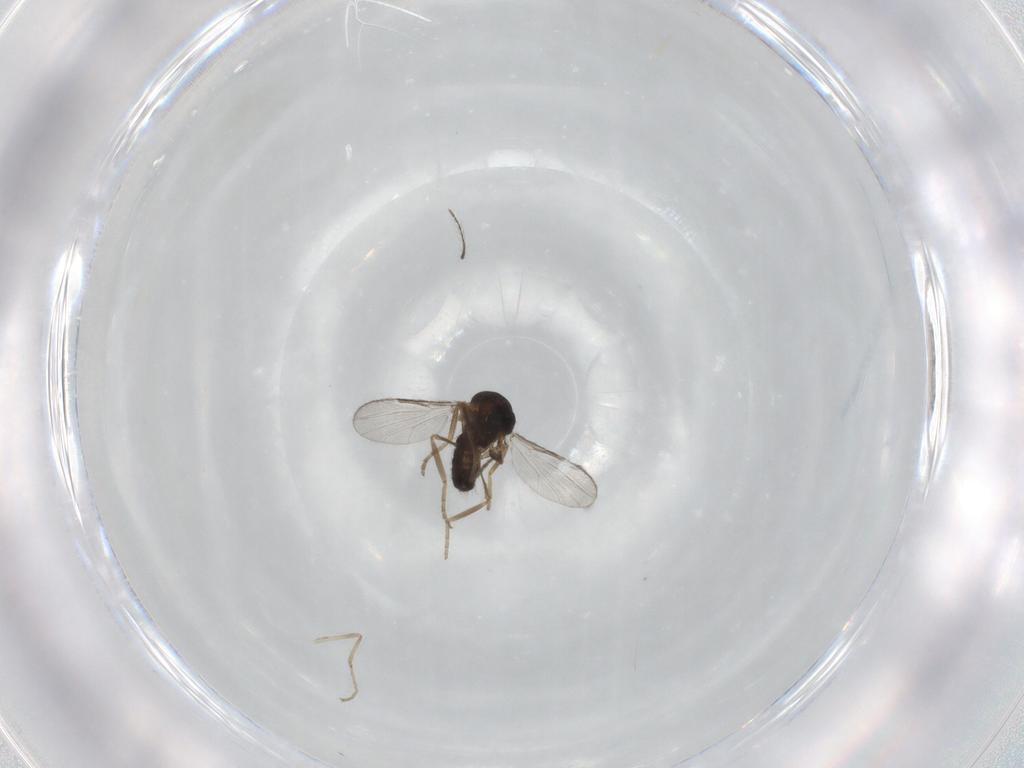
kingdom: Animalia
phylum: Arthropoda
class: Insecta
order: Diptera
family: Ceratopogonidae
